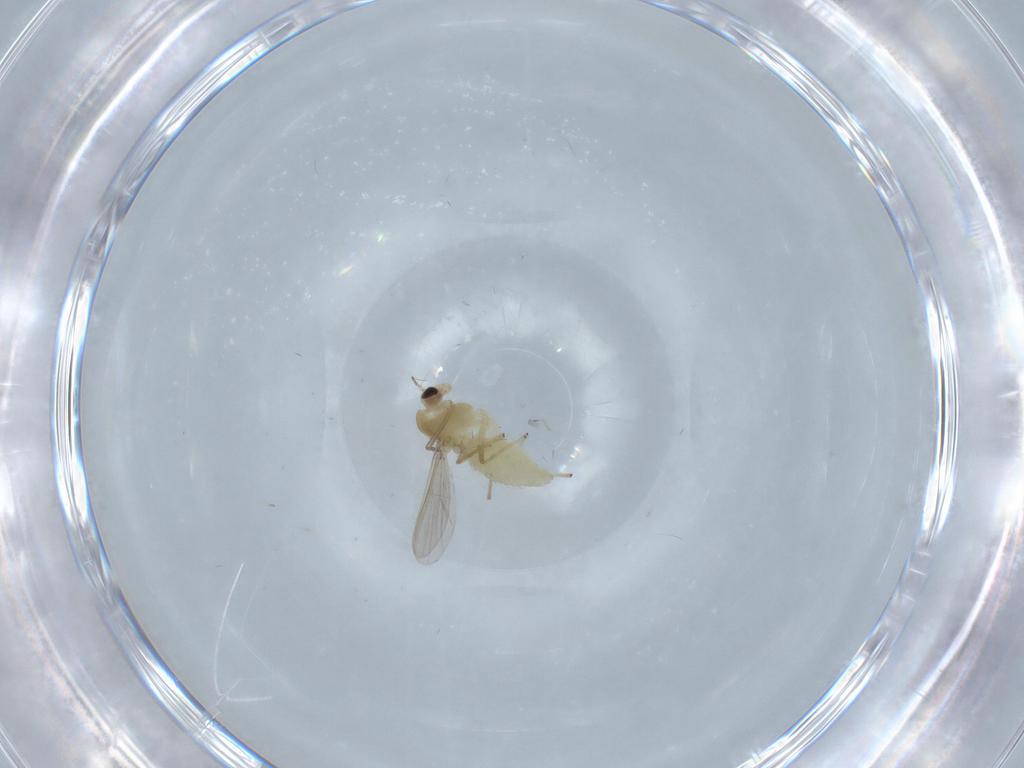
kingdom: Animalia
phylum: Arthropoda
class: Insecta
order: Diptera
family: Chironomidae
